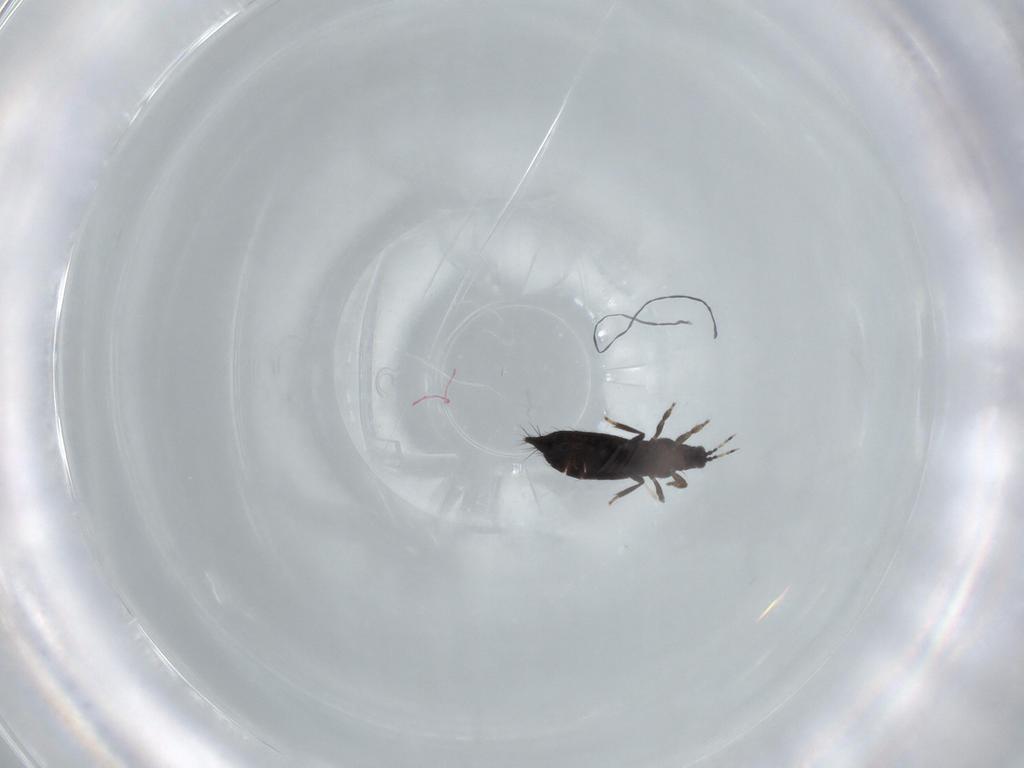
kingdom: Animalia
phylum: Arthropoda
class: Insecta
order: Thysanoptera
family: Thripidae
